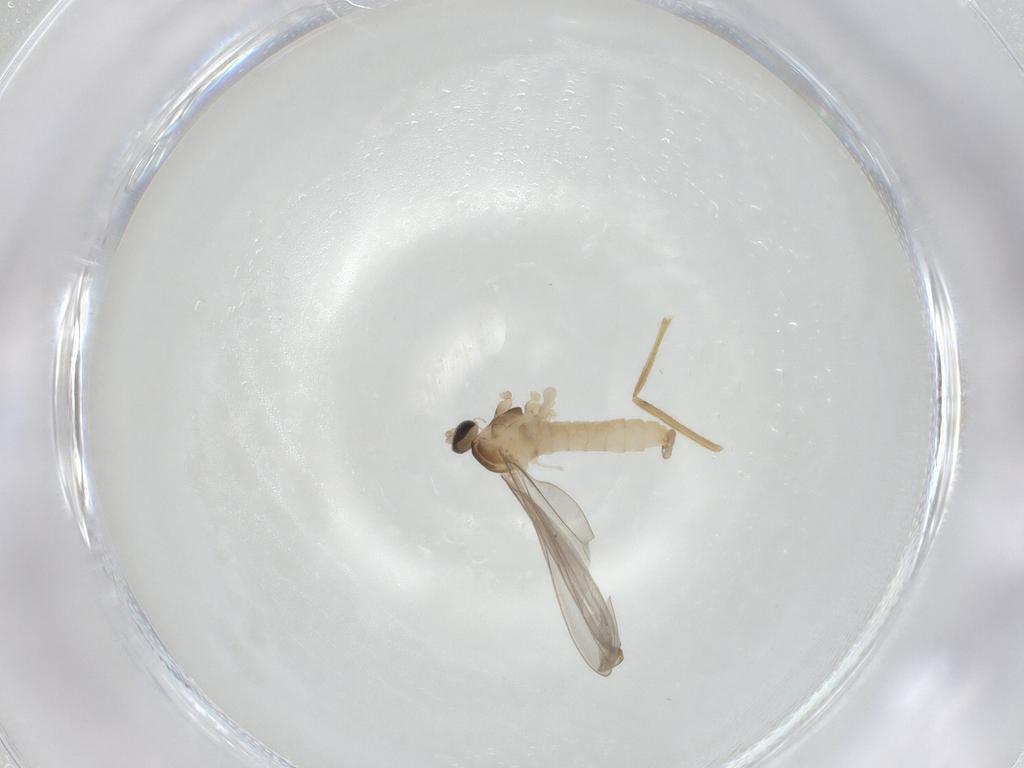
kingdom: Animalia
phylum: Arthropoda
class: Insecta
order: Diptera
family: Cecidomyiidae
